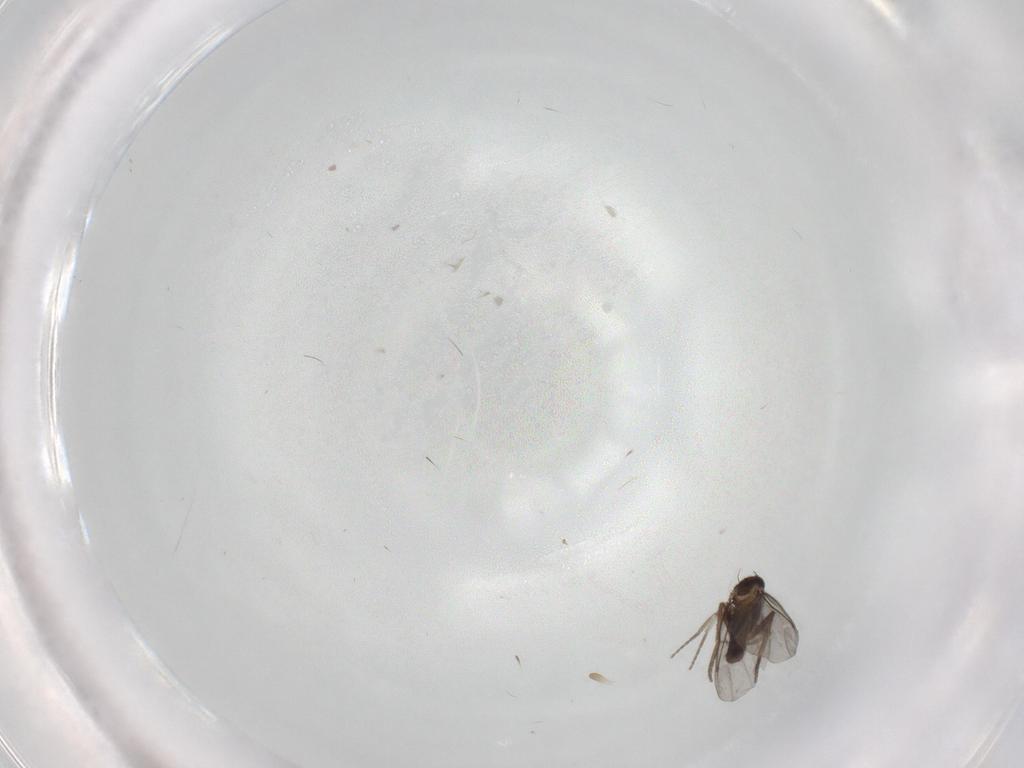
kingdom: Animalia
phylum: Arthropoda
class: Insecta
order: Diptera
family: Phoridae
